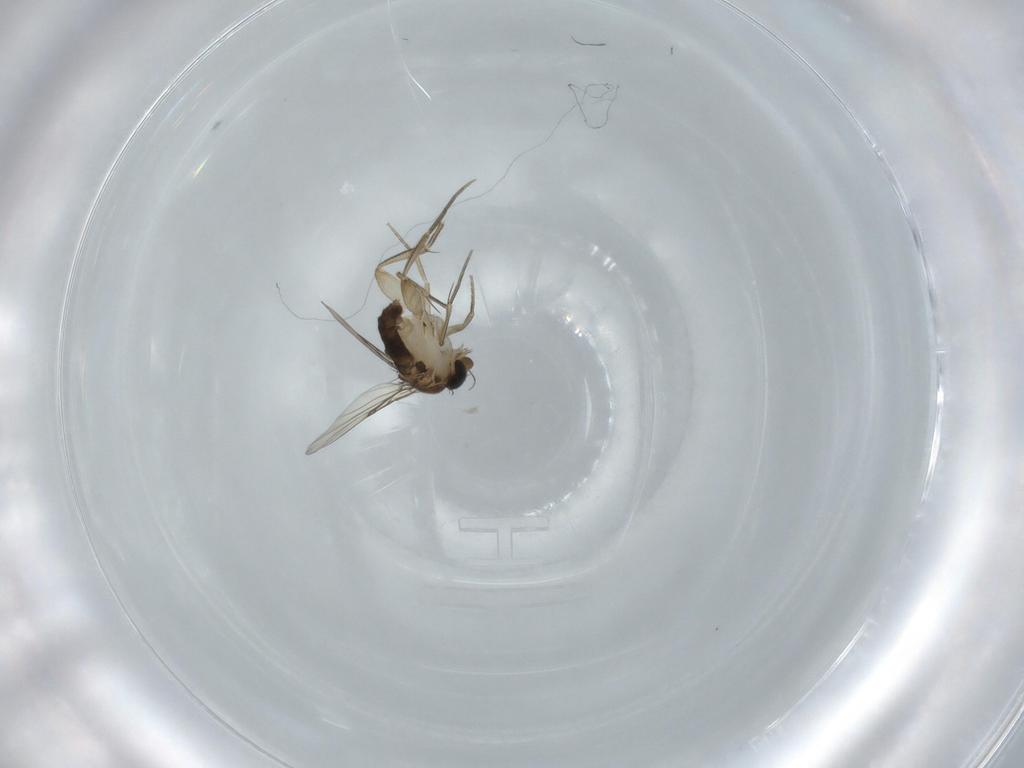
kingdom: Animalia
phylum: Arthropoda
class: Insecta
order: Diptera
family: Phoridae
